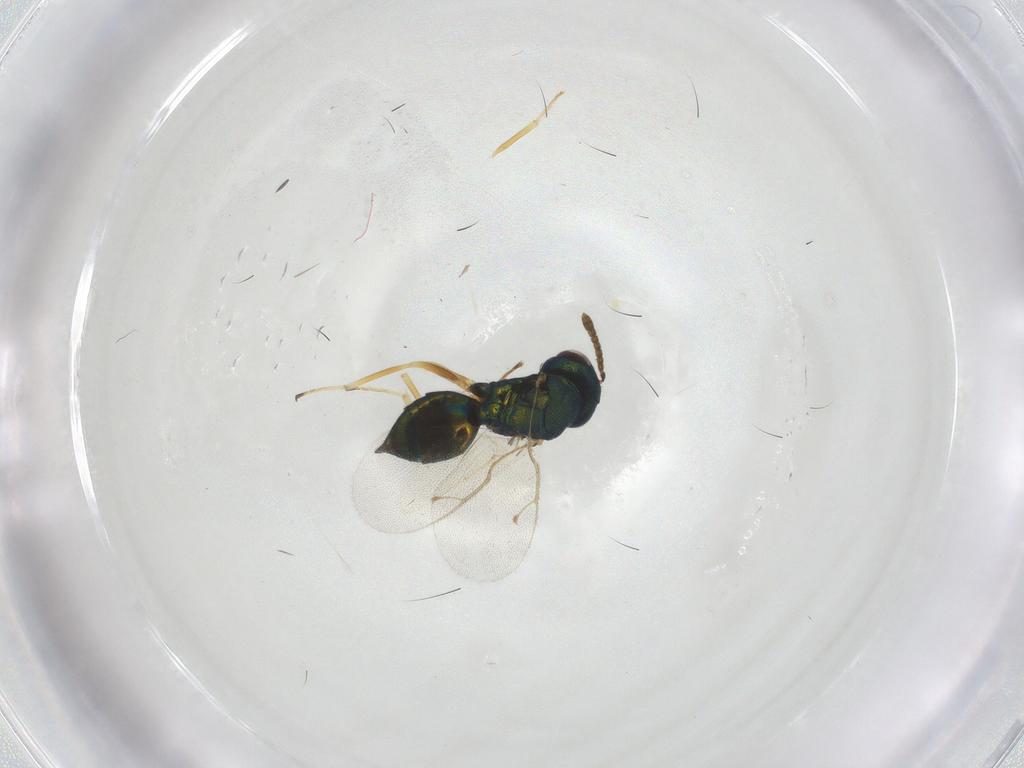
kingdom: Animalia
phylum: Arthropoda
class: Insecta
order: Hymenoptera
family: Pteromalidae
